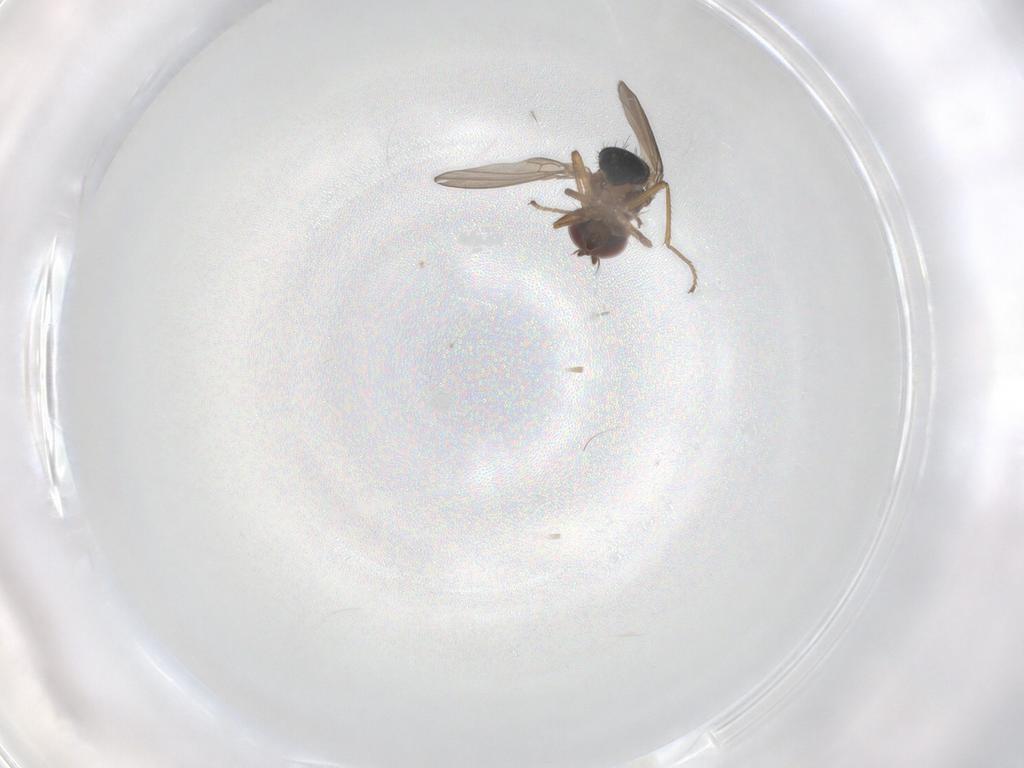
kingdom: Animalia
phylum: Arthropoda
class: Insecta
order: Diptera
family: Ephydridae
